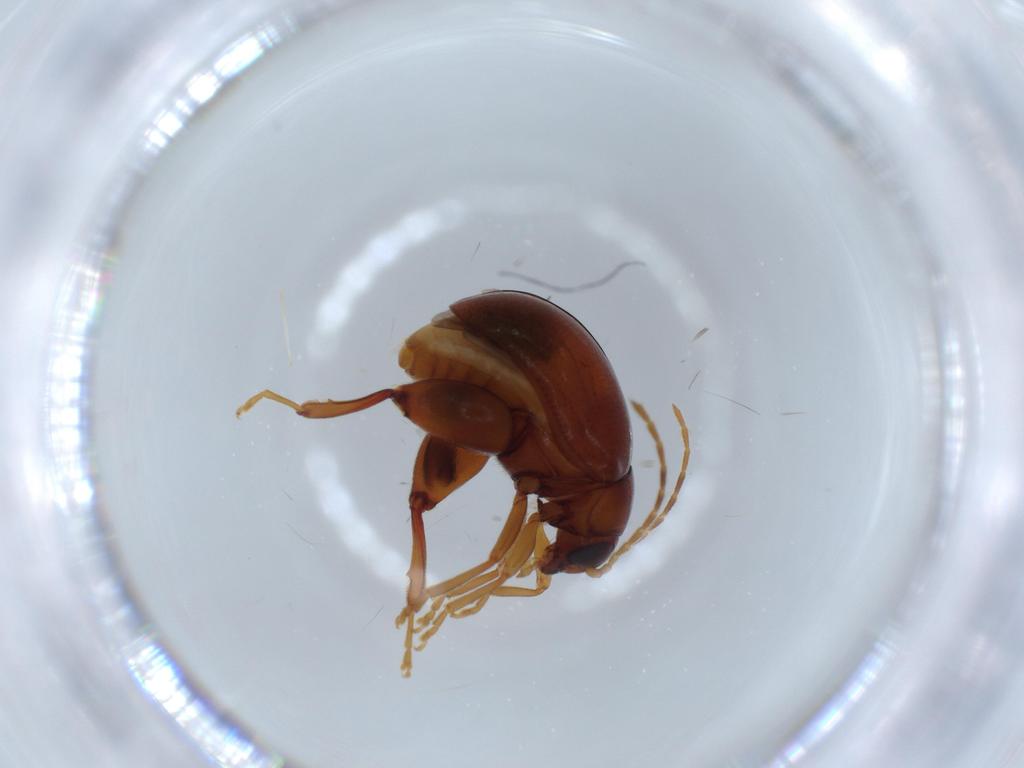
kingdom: Animalia
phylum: Arthropoda
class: Insecta
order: Coleoptera
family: Chrysomelidae
